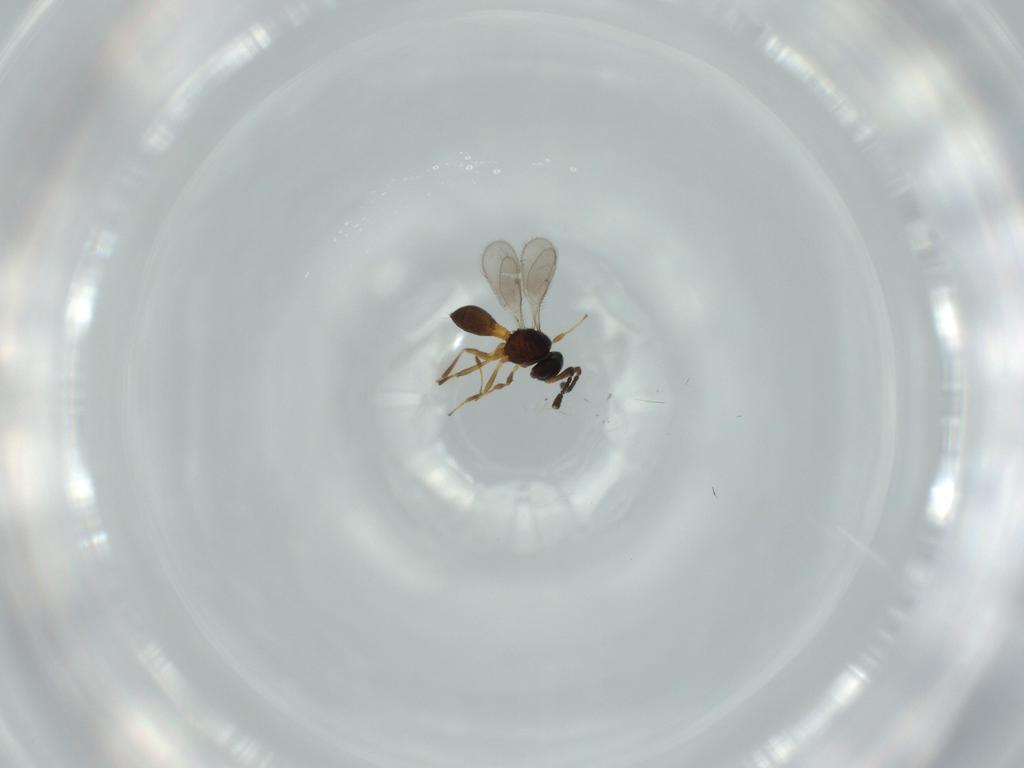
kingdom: Animalia
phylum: Arthropoda
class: Insecta
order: Hymenoptera
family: Scelionidae
